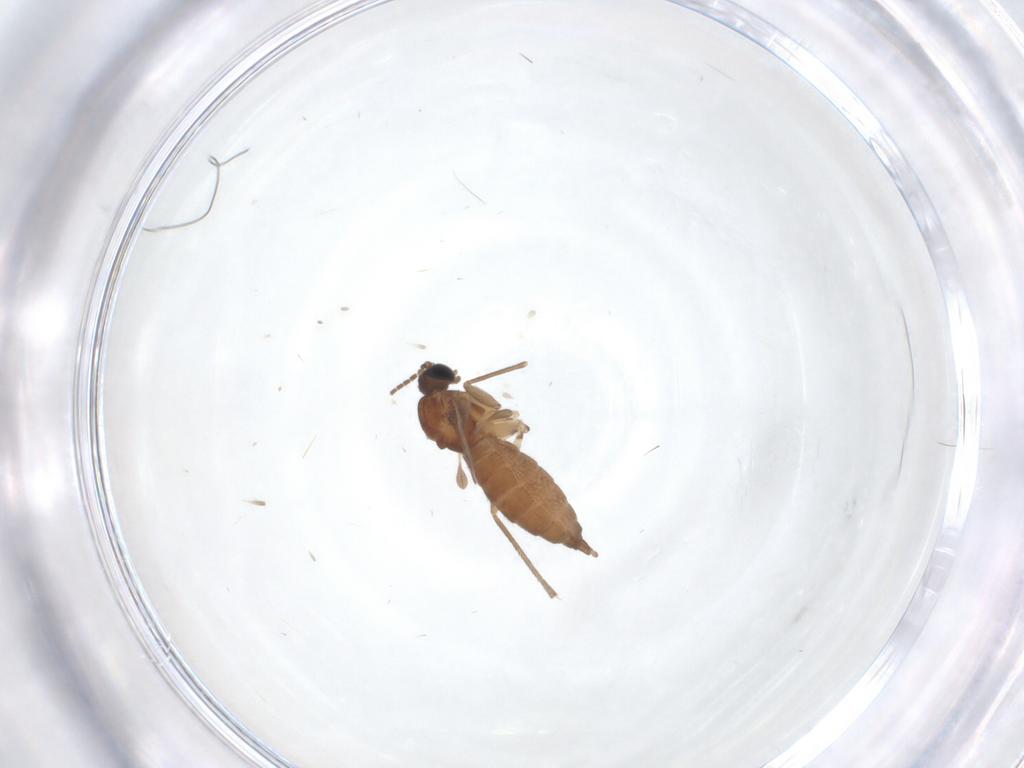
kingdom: Animalia
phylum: Arthropoda
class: Insecta
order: Diptera
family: Sciaridae
